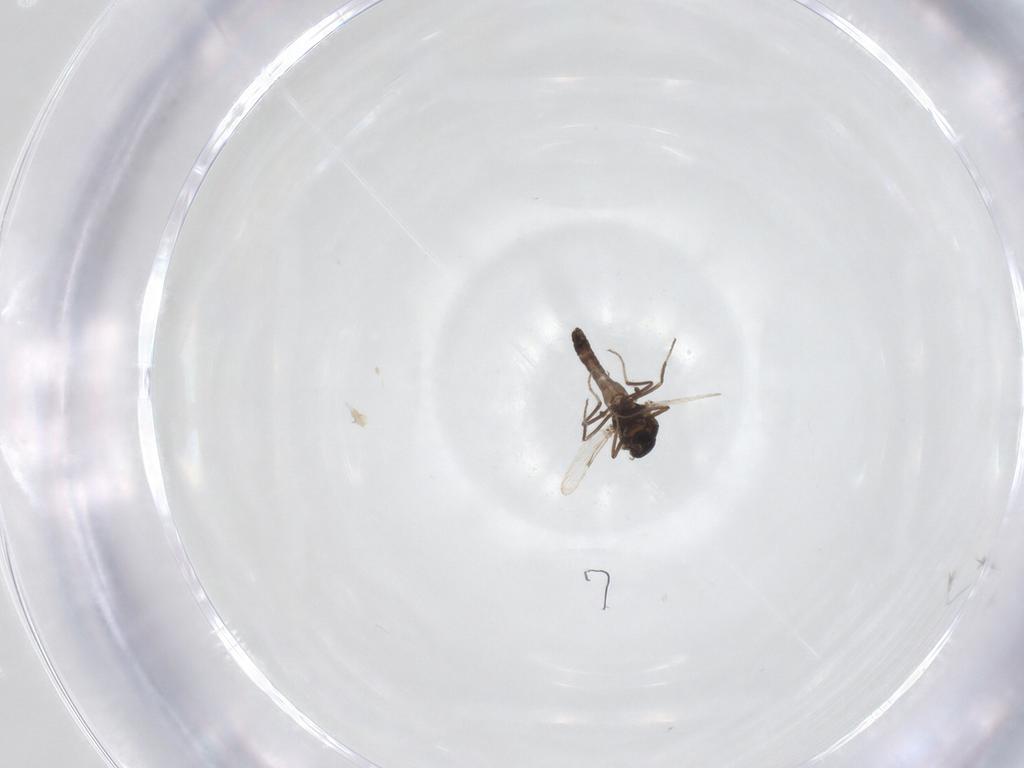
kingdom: Animalia
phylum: Arthropoda
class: Insecta
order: Diptera
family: Ceratopogonidae
